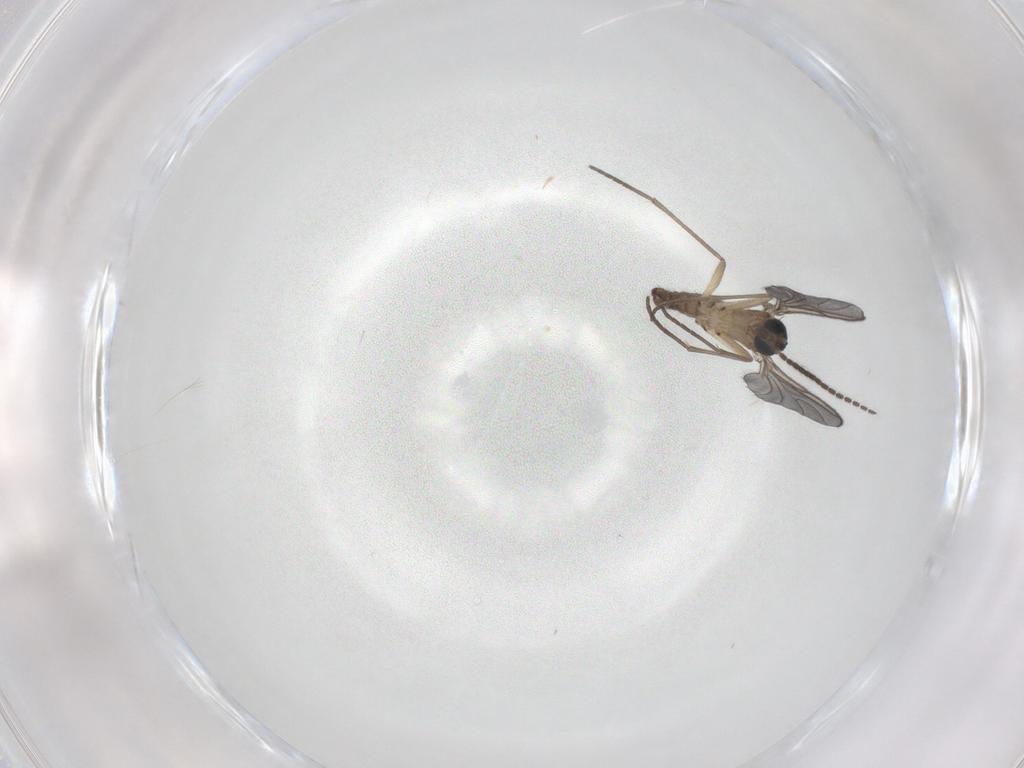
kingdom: Animalia
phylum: Arthropoda
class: Insecta
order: Diptera
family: Sciaridae
